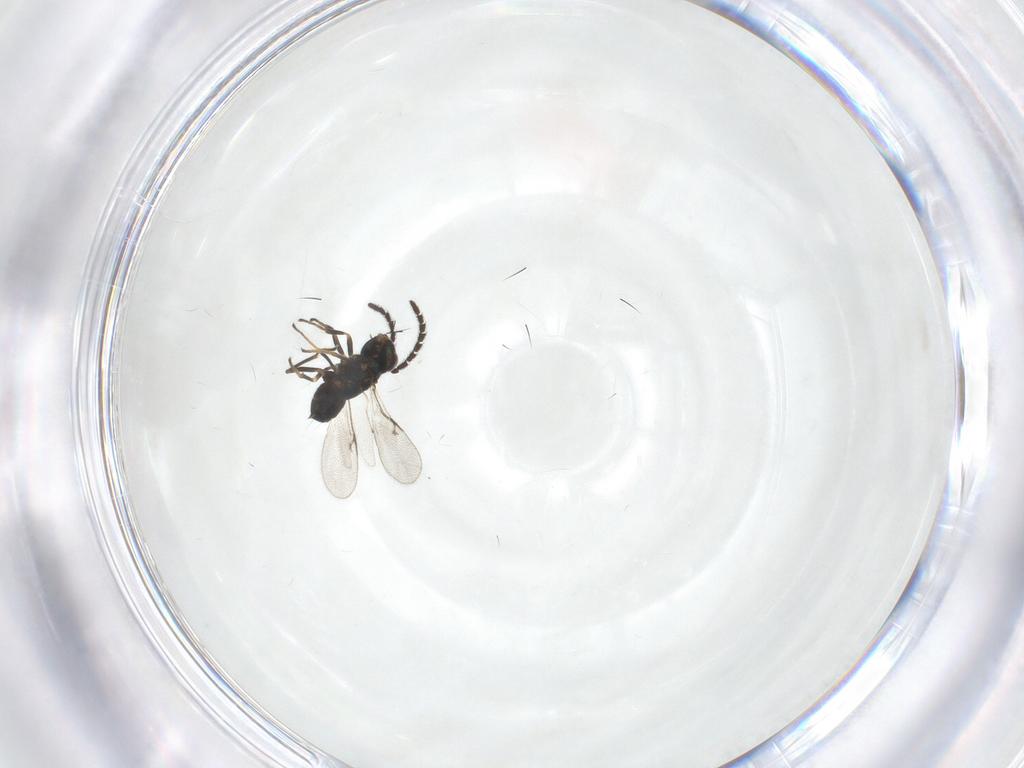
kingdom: Animalia
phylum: Arthropoda
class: Insecta
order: Hymenoptera
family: Encyrtidae
